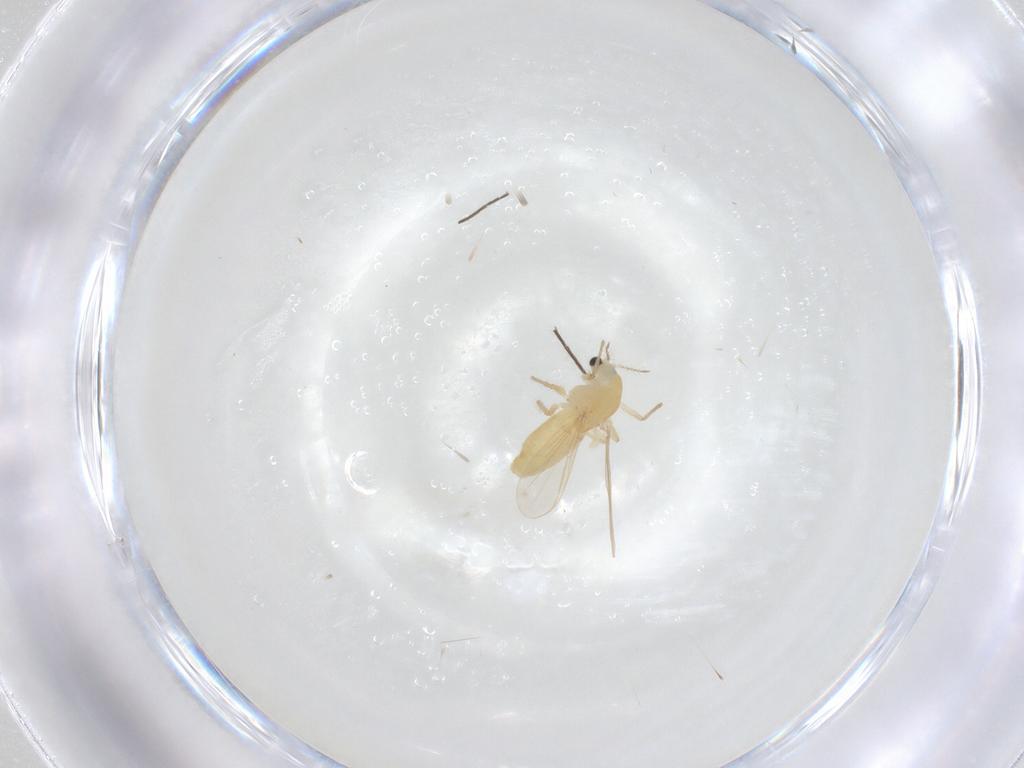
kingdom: Animalia
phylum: Arthropoda
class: Insecta
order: Diptera
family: Chironomidae
